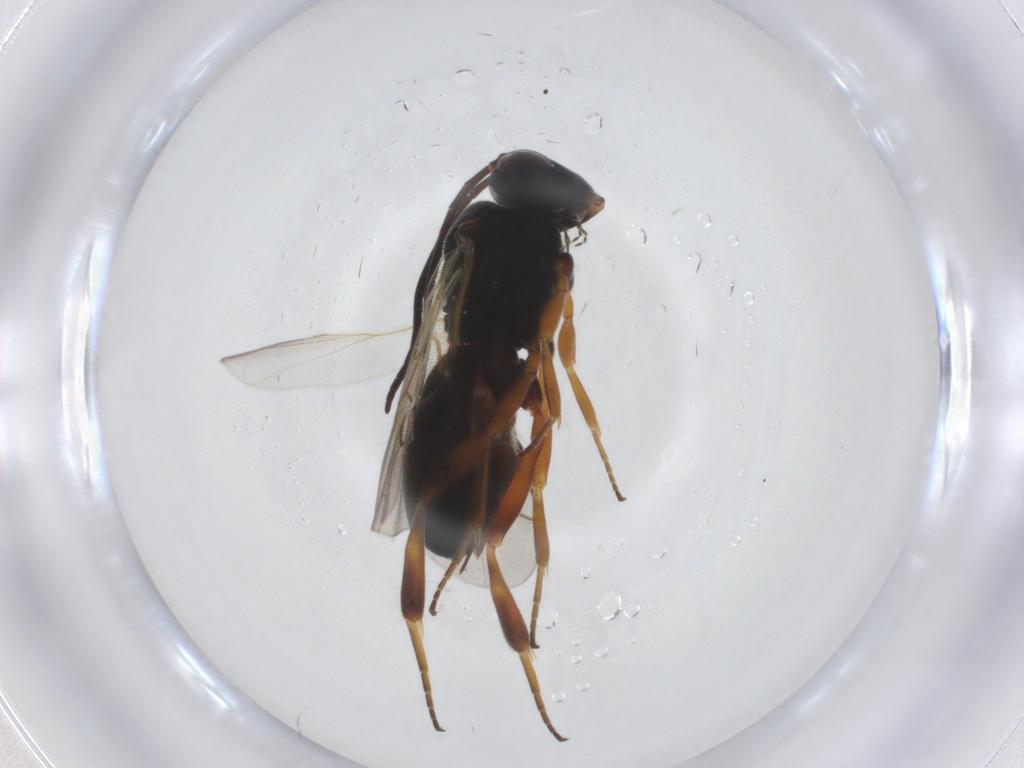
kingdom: Animalia
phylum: Arthropoda
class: Insecta
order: Hymenoptera
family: Braconidae
